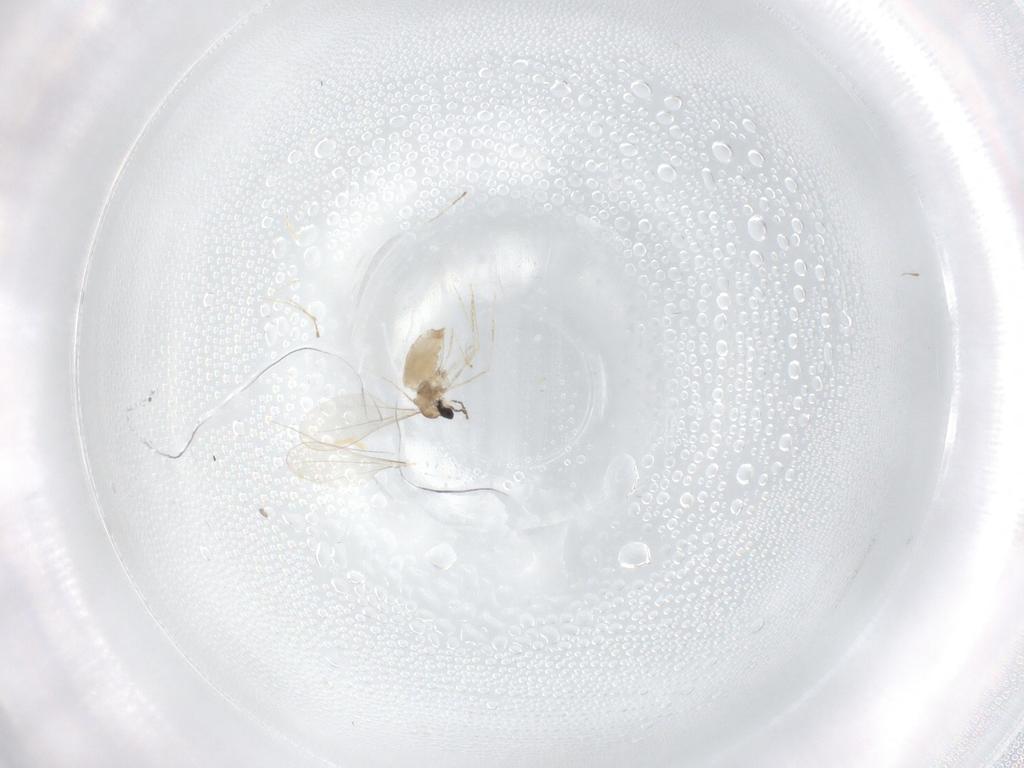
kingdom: Animalia
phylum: Arthropoda
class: Insecta
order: Diptera
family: Cecidomyiidae
